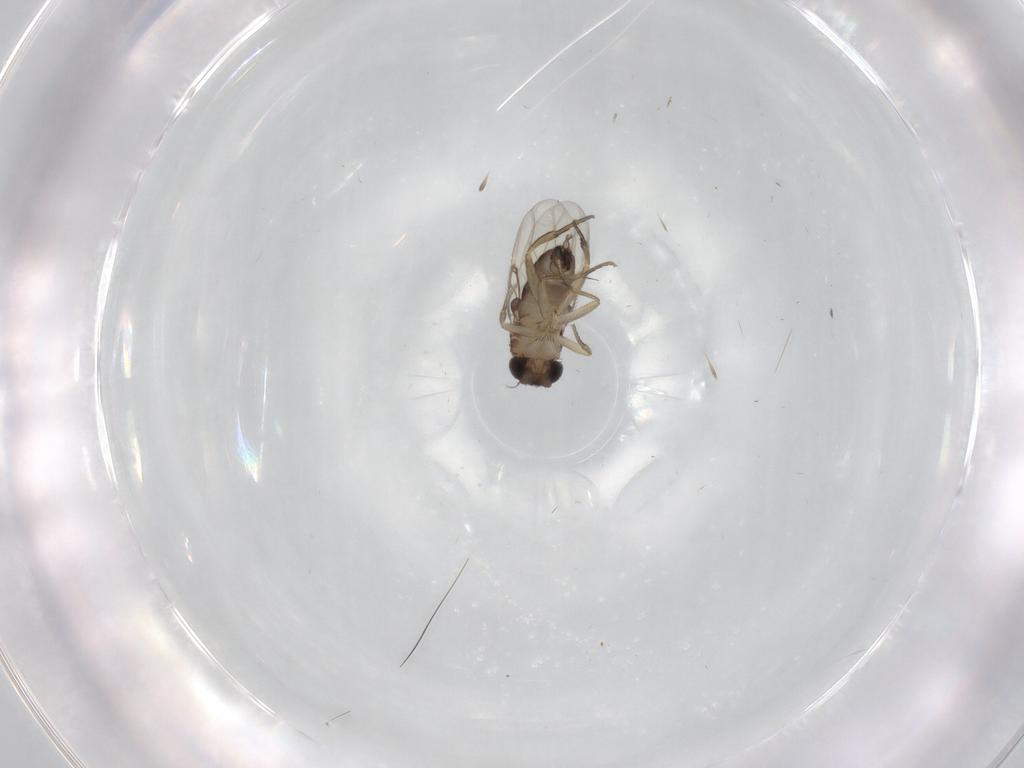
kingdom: Animalia
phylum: Arthropoda
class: Insecta
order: Diptera
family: Phoridae
